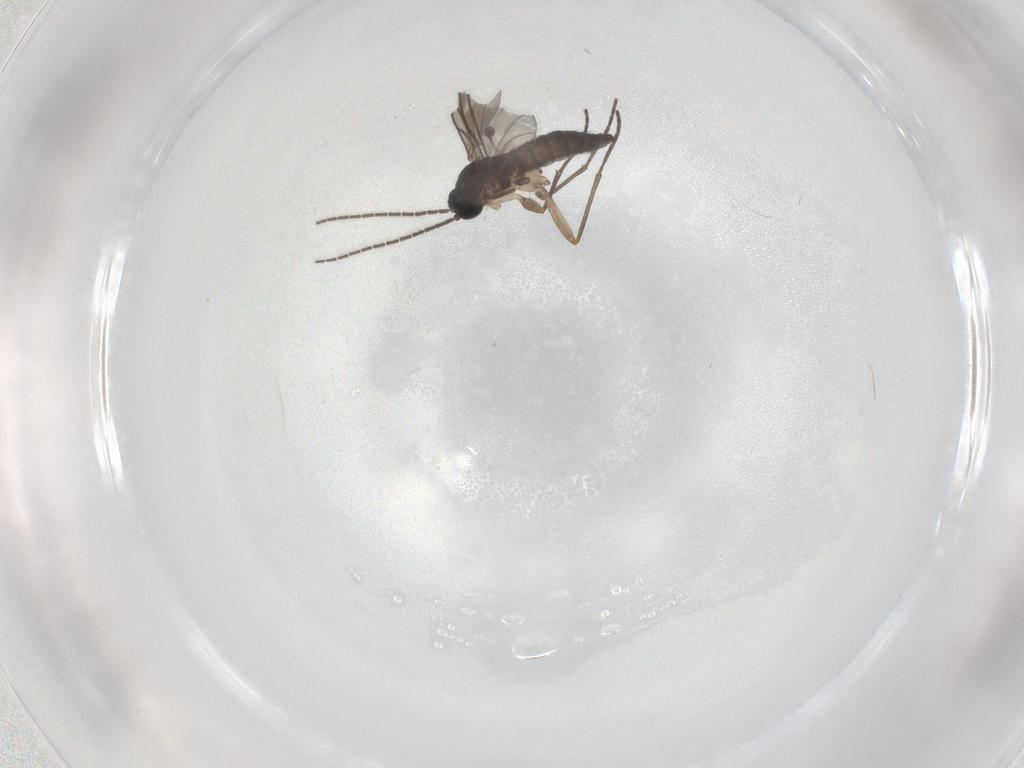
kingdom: Animalia
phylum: Arthropoda
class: Insecta
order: Diptera
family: Sciaridae
